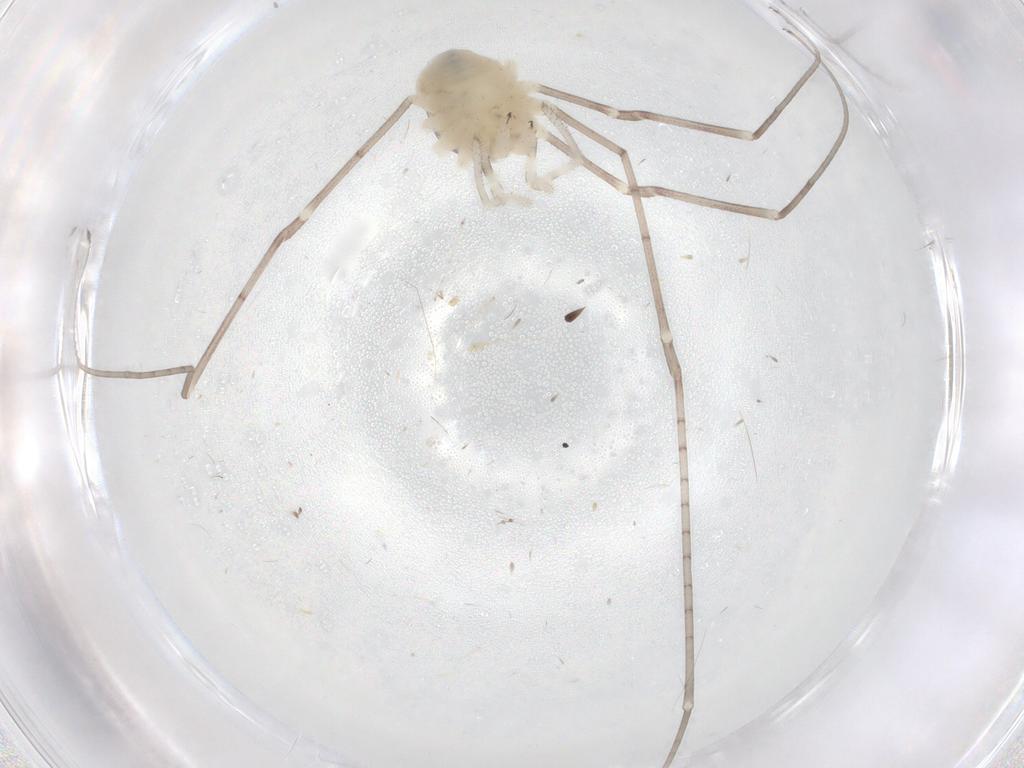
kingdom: Animalia
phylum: Arthropoda
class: Arachnida
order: Opiliones
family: Sclerosomatidae
